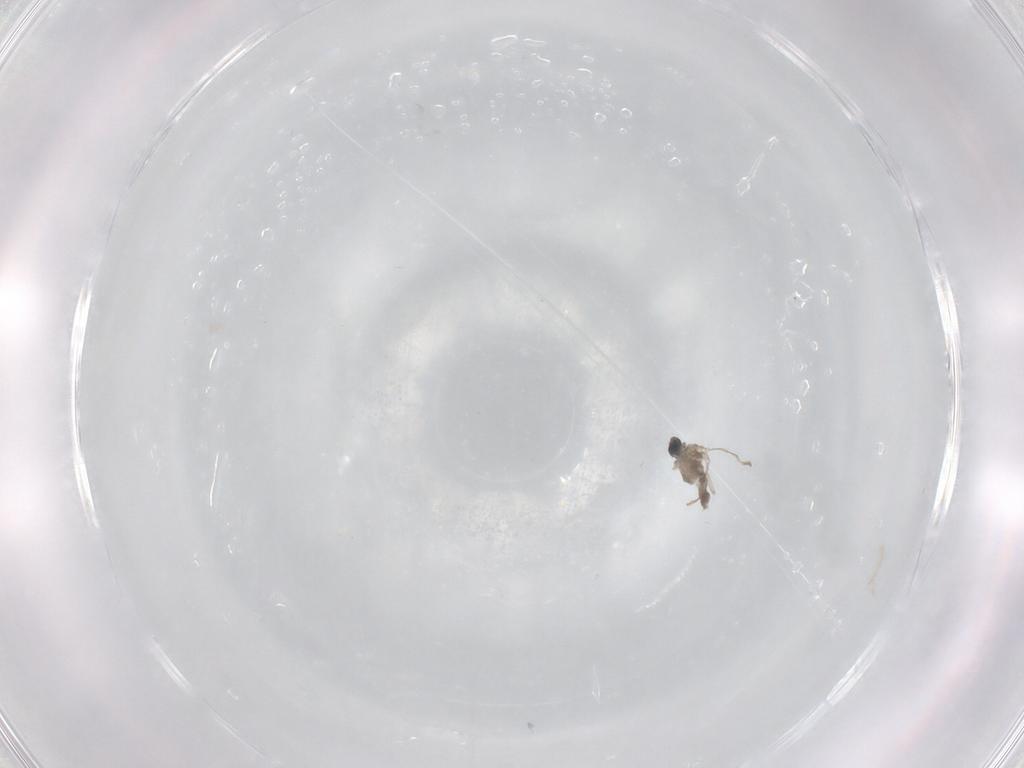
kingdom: Animalia
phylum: Arthropoda
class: Insecta
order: Diptera
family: Cecidomyiidae
